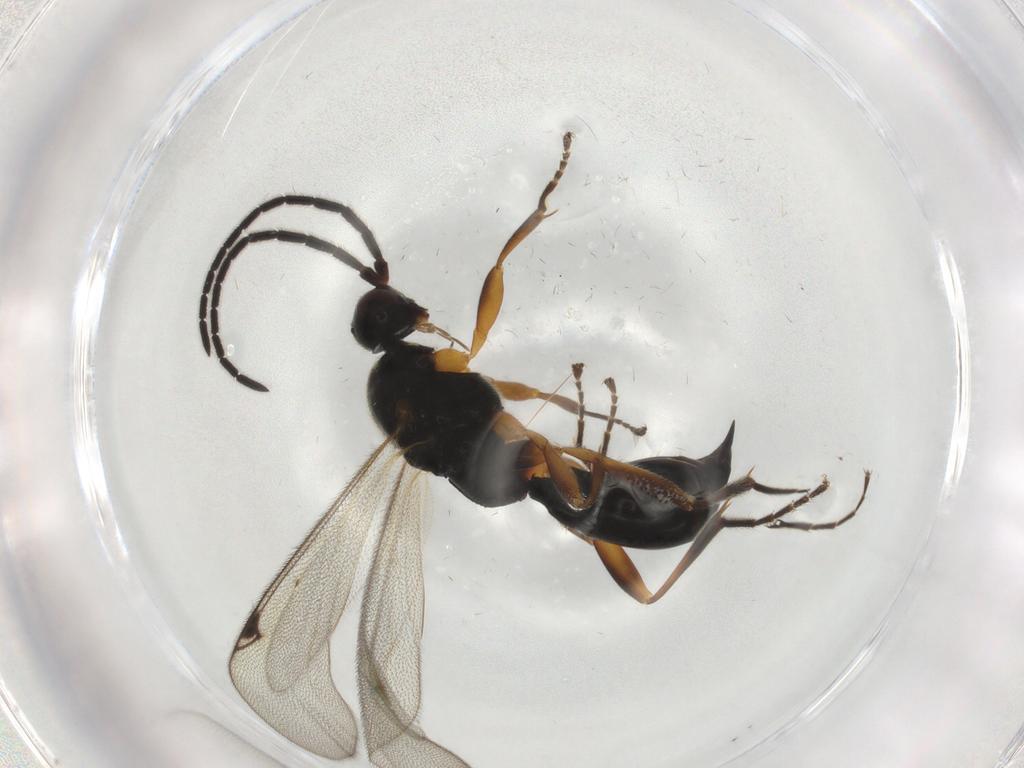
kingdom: Animalia
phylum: Arthropoda
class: Insecta
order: Hymenoptera
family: Proctotrupidae
